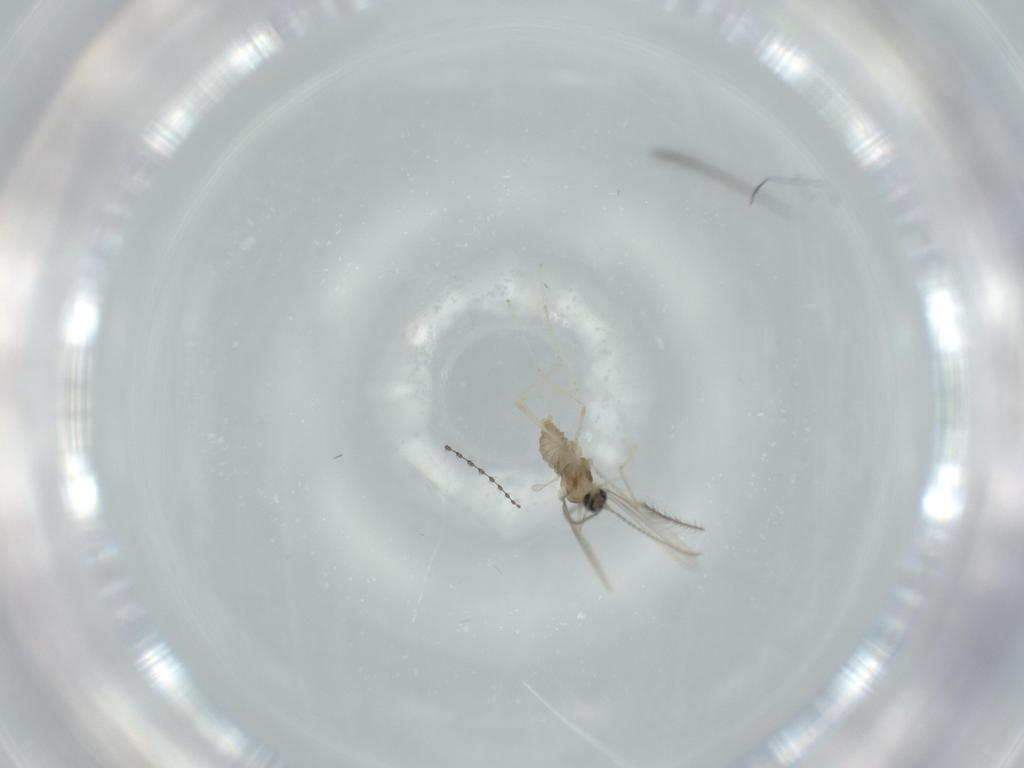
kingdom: Animalia
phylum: Arthropoda
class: Insecta
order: Diptera
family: Cecidomyiidae
